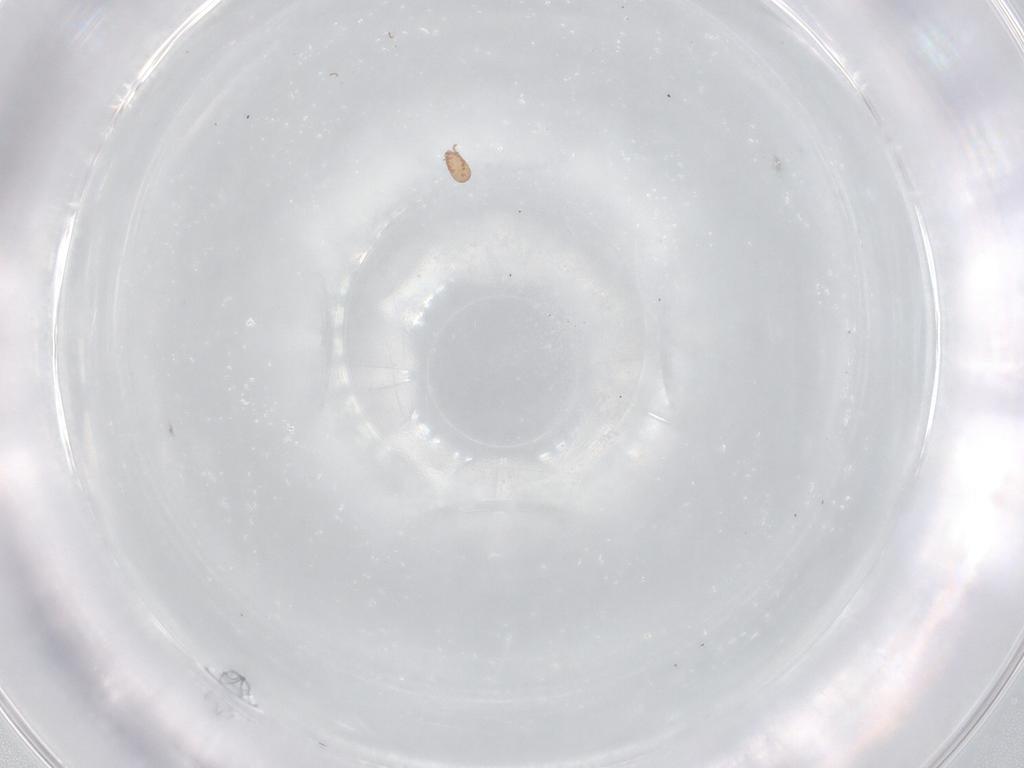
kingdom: Animalia
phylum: Arthropoda
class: Arachnida
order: Sarcoptiformes
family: Eremaeidae
